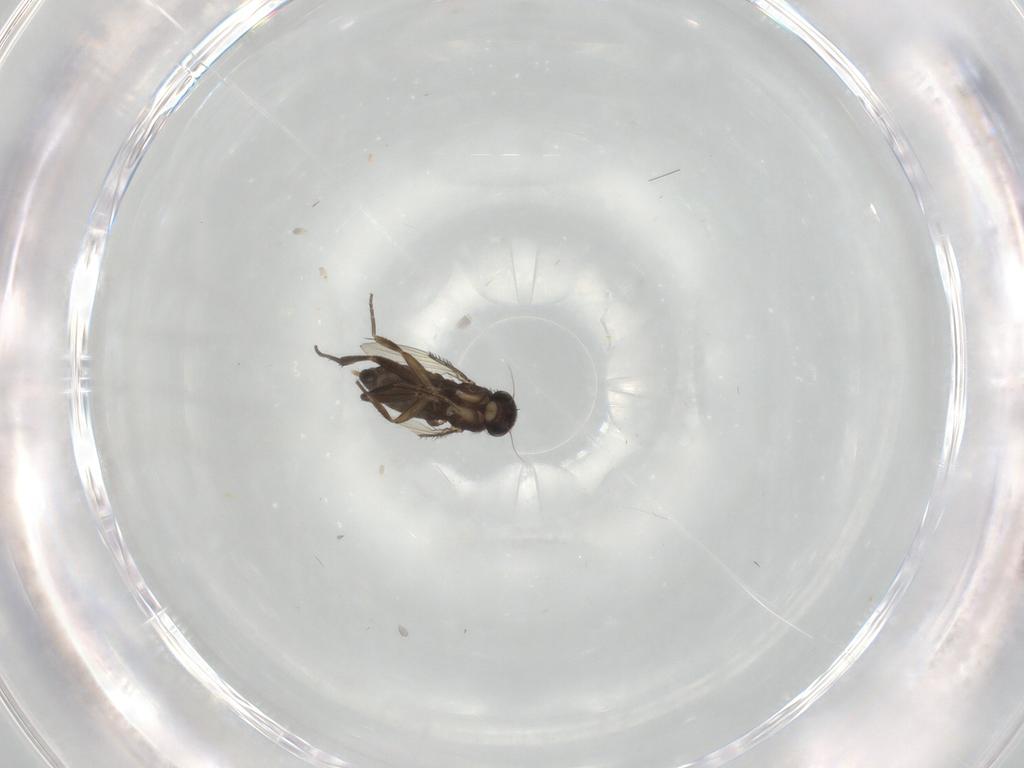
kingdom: Animalia
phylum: Arthropoda
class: Insecta
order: Diptera
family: Phoridae
